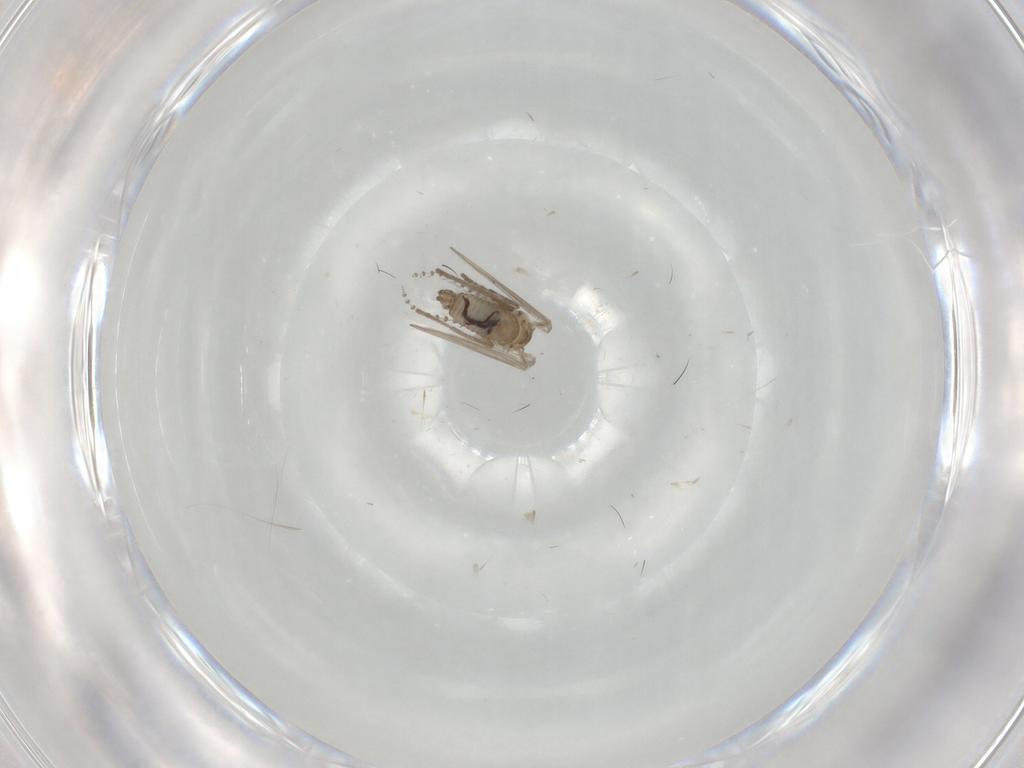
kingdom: Animalia
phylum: Arthropoda
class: Insecta
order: Diptera
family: Psychodidae
